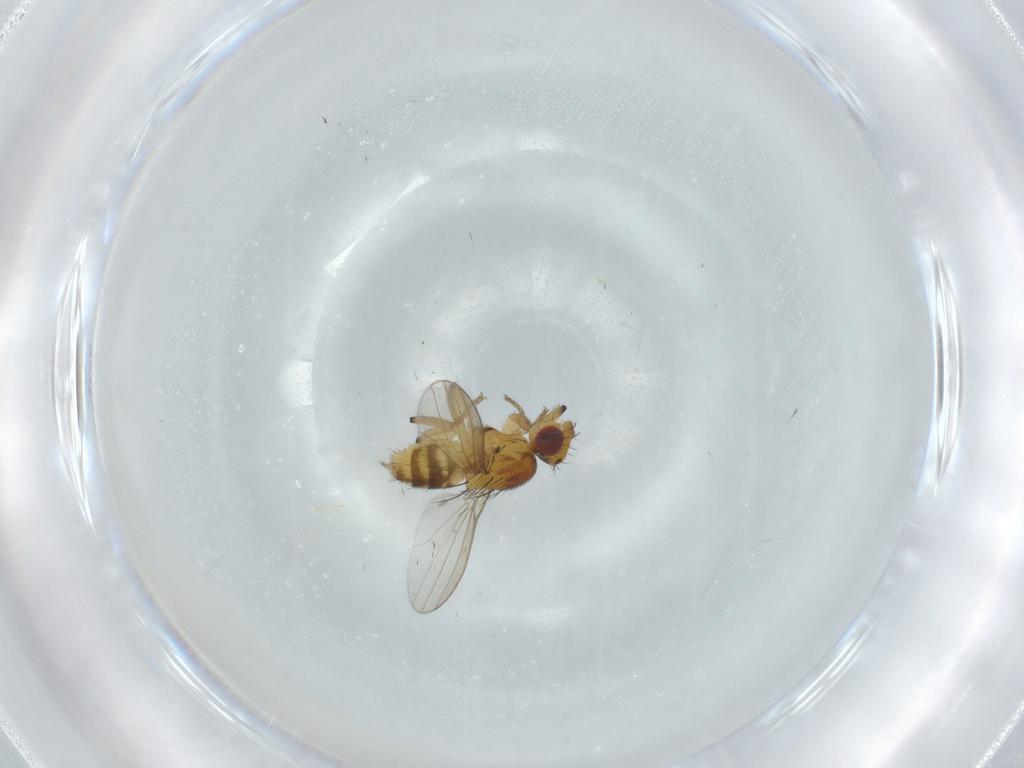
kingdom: Animalia
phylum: Arthropoda
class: Insecta
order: Diptera
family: Milichiidae
